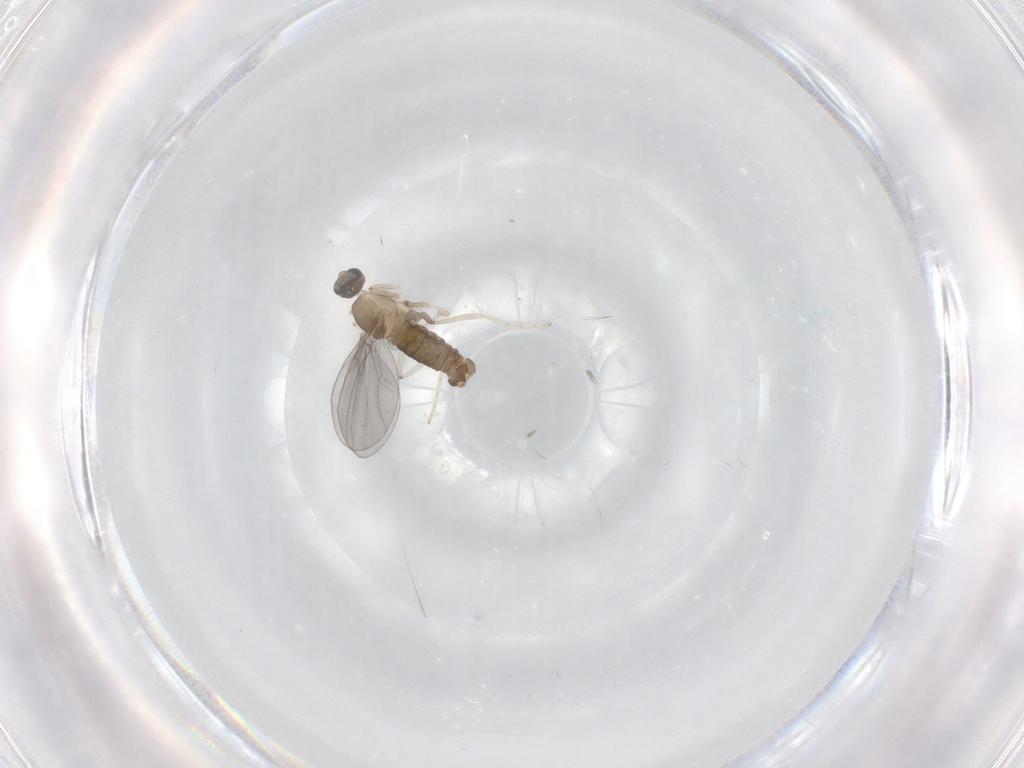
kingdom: Animalia
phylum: Arthropoda
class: Insecta
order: Diptera
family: Cecidomyiidae
